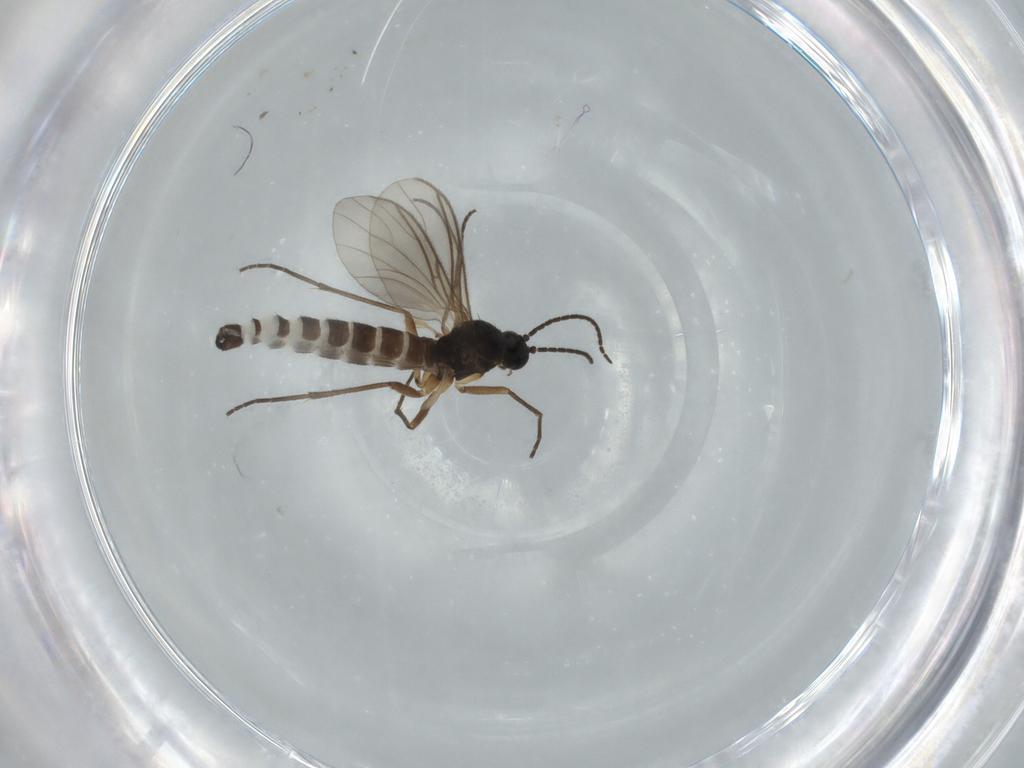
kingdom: Animalia
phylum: Arthropoda
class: Insecta
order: Diptera
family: Sciaridae
